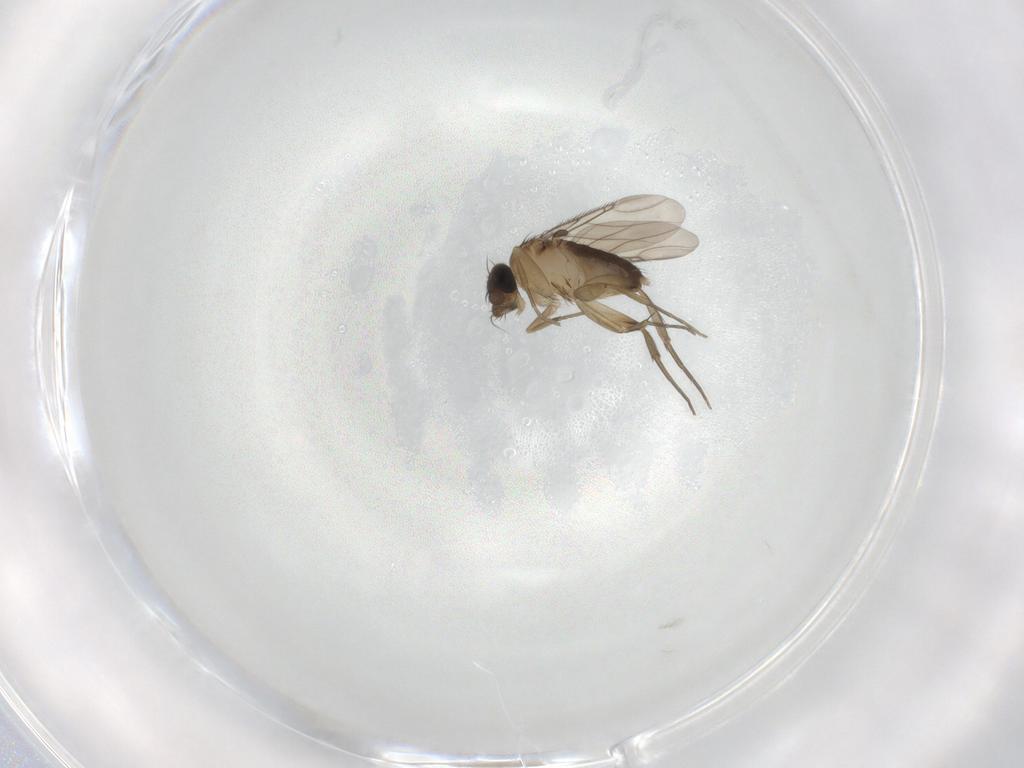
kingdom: Animalia
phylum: Arthropoda
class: Insecta
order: Diptera
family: Phoridae
